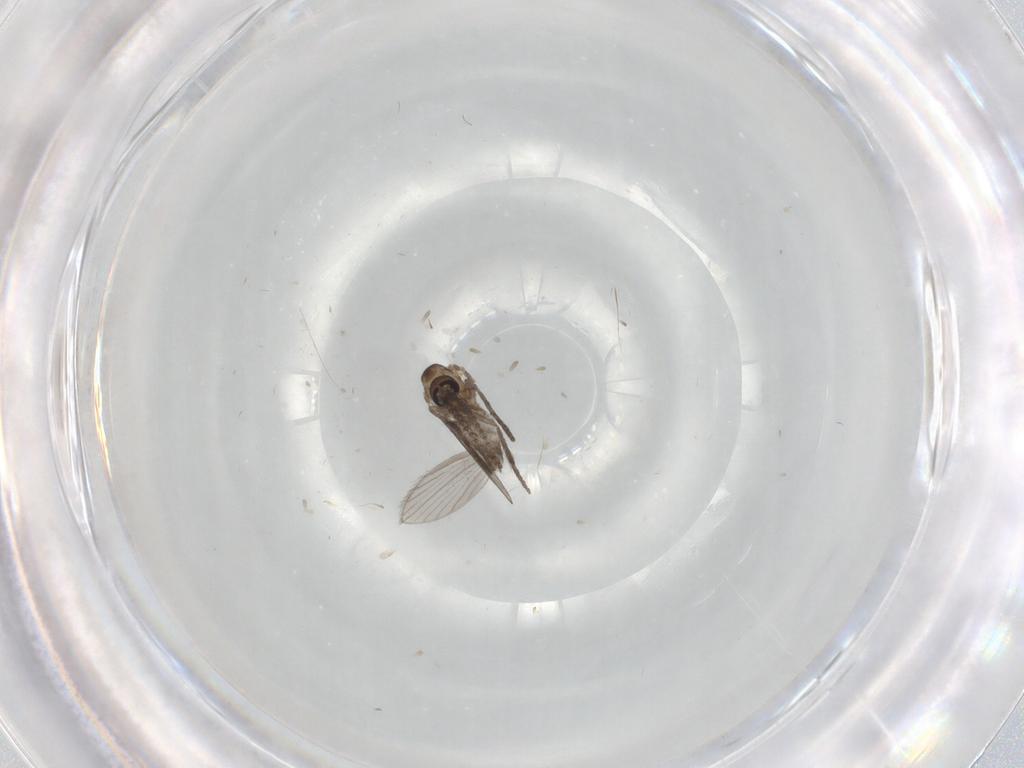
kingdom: Animalia
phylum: Arthropoda
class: Insecta
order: Diptera
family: Psychodidae
